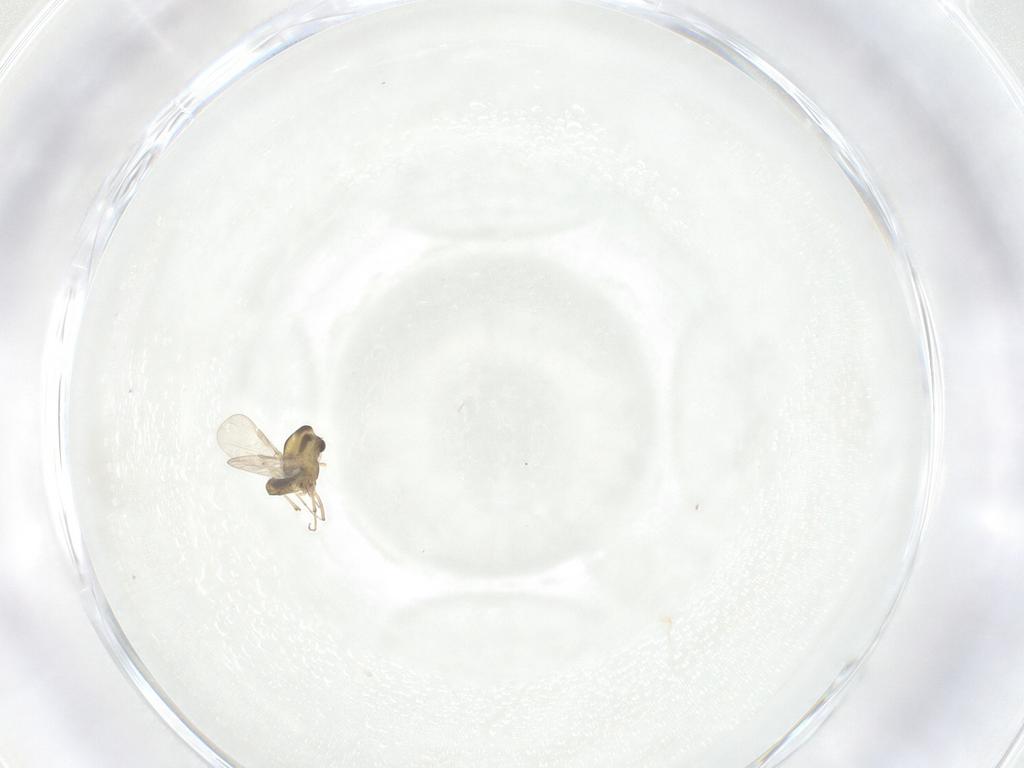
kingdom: Animalia
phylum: Arthropoda
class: Insecta
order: Diptera
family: Chironomidae
